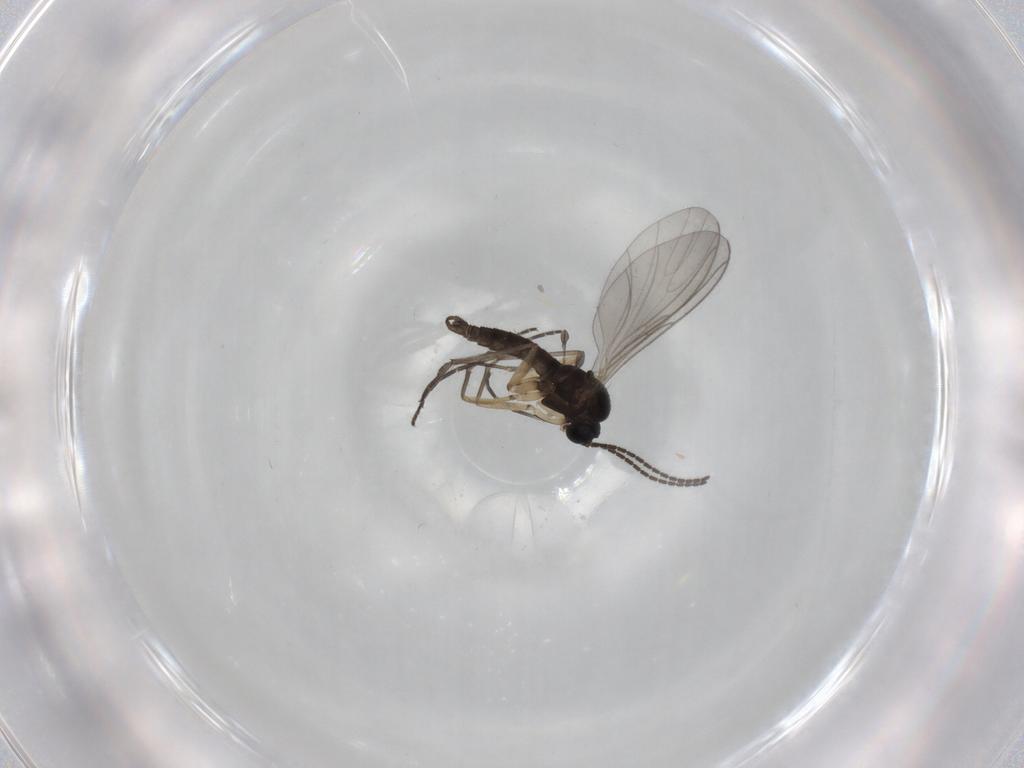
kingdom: Animalia
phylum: Arthropoda
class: Insecta
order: Diptera
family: Sciaridae
